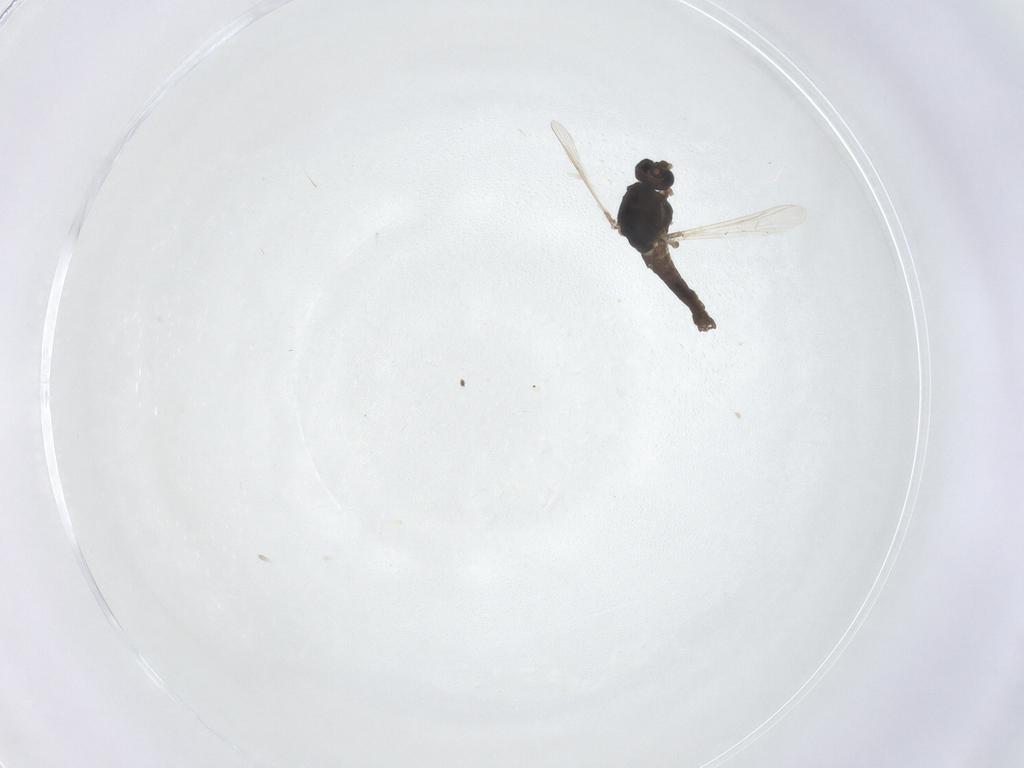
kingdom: Animalia
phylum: Arthropoda
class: Insecta
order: Diptera
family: Chironomidae
